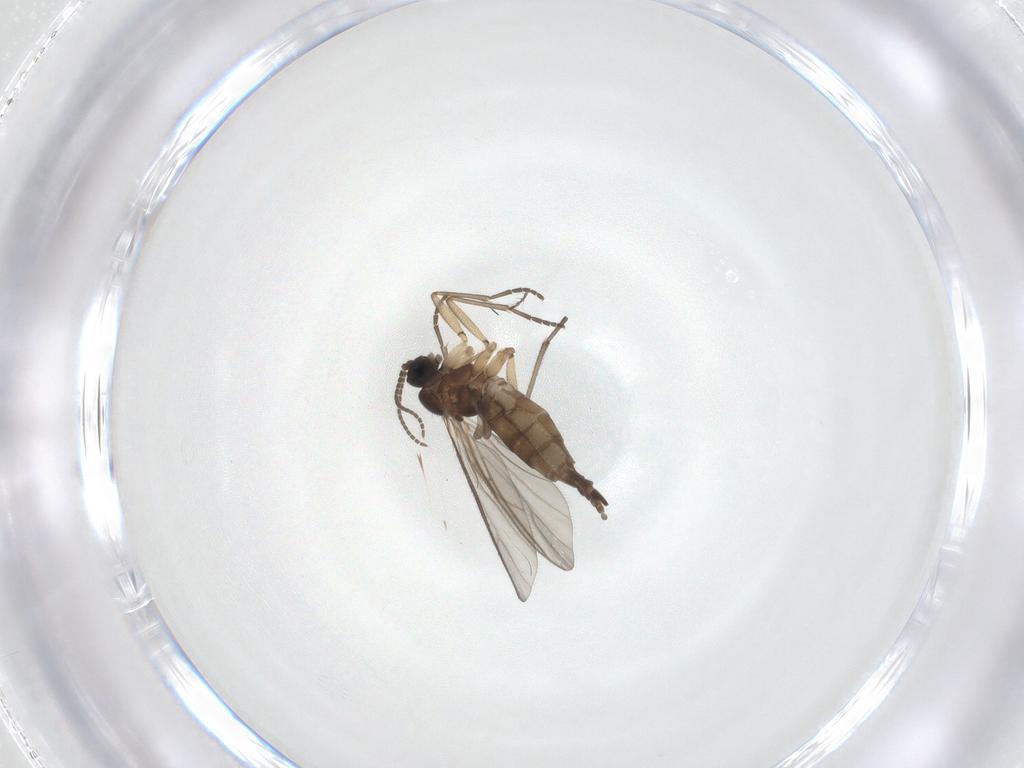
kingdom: Animalia
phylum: Arthropoda
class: Insecta
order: Diptera
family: Sciaridae
